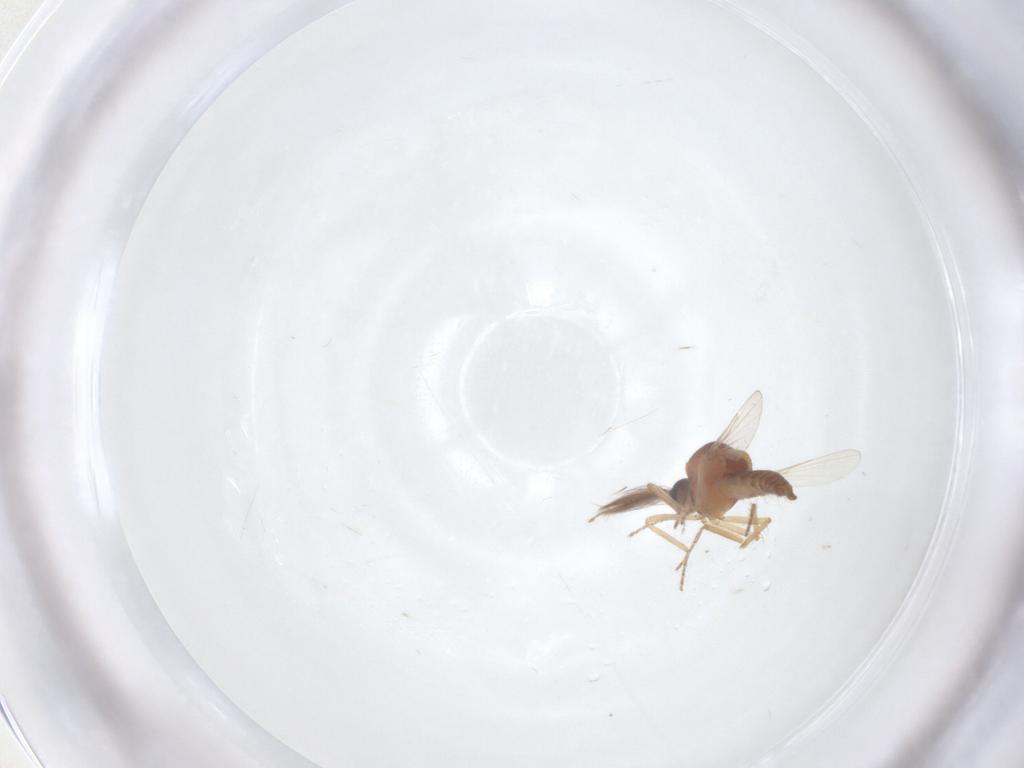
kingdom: Animalia
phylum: Arthropoda
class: Insecta
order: Diptera
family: Ceratopogonidae
